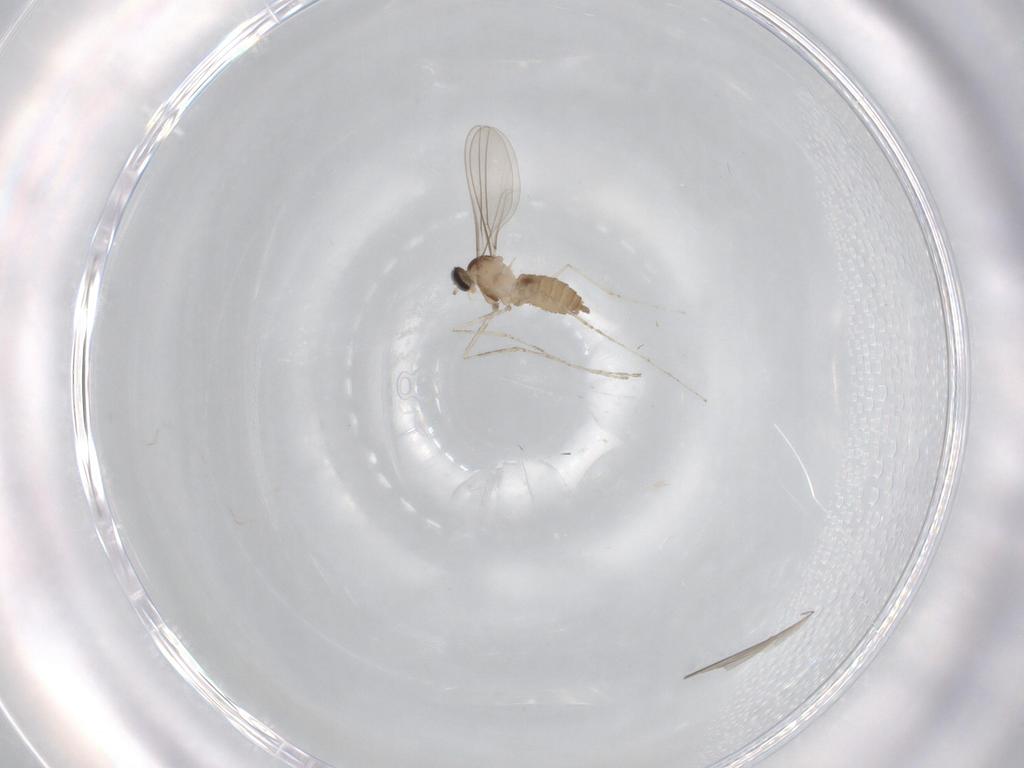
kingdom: Animalia
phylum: Arthropoda
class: Insecta
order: Diptera
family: Cecidomyiidae
